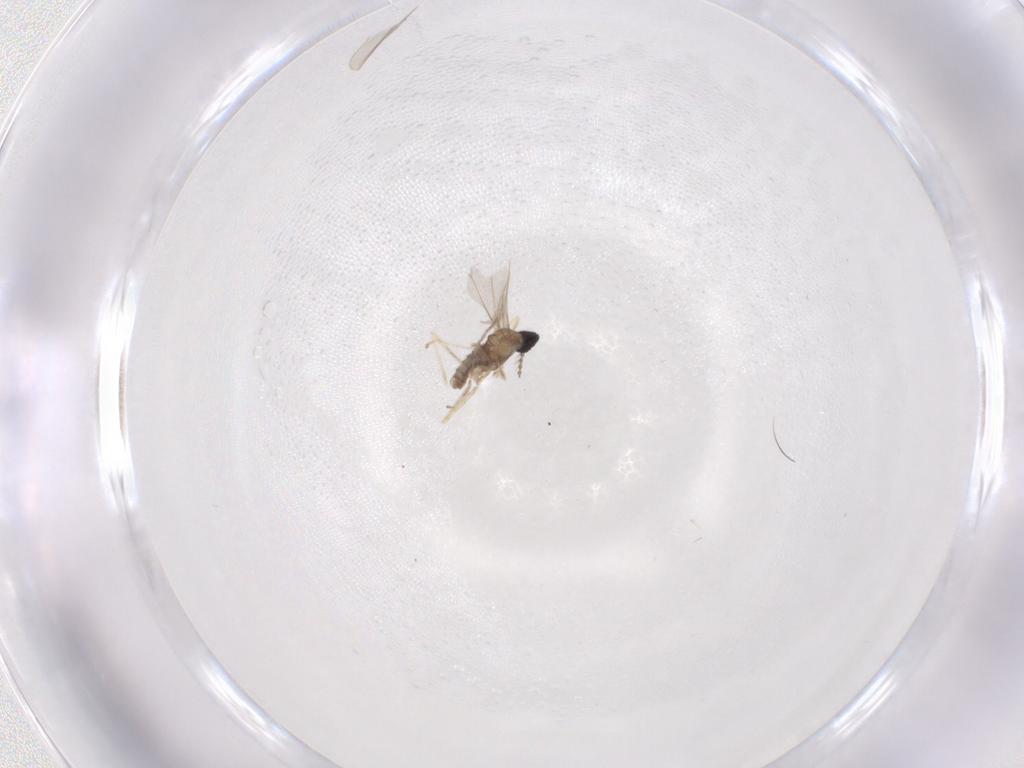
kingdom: Animalia
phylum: Arthropoda
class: Insecta
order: Diptera
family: Cecidomyiidae
